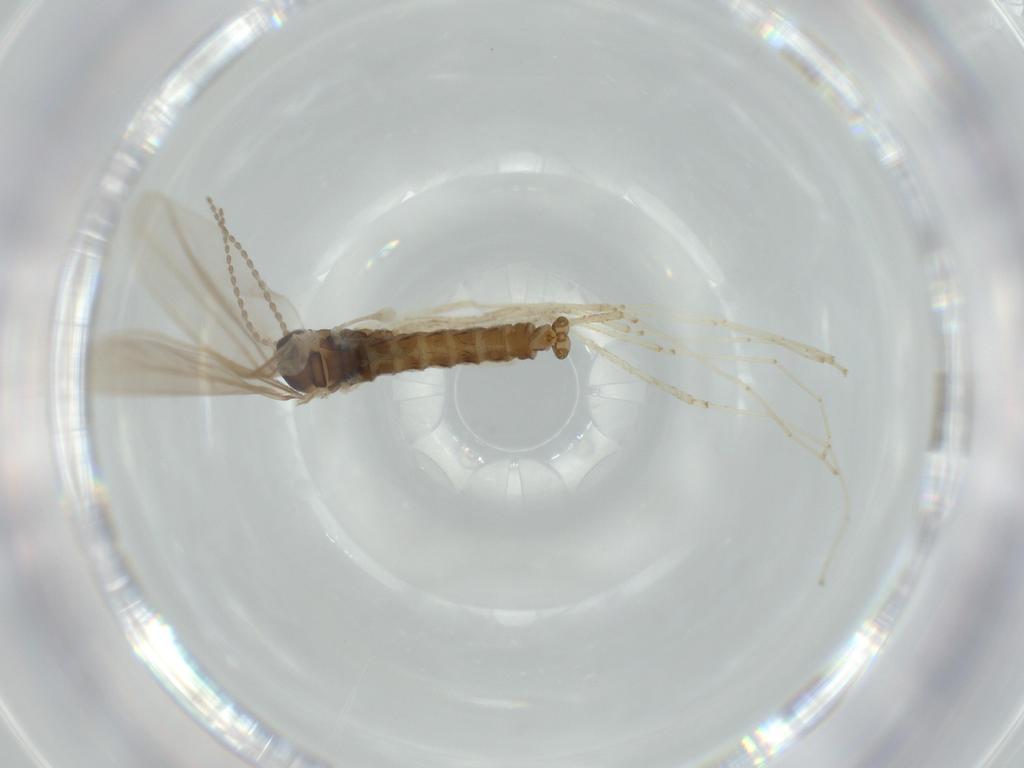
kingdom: Animalia
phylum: Arthropoda
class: Insecta
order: Diptera
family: Cecidomyiidae
